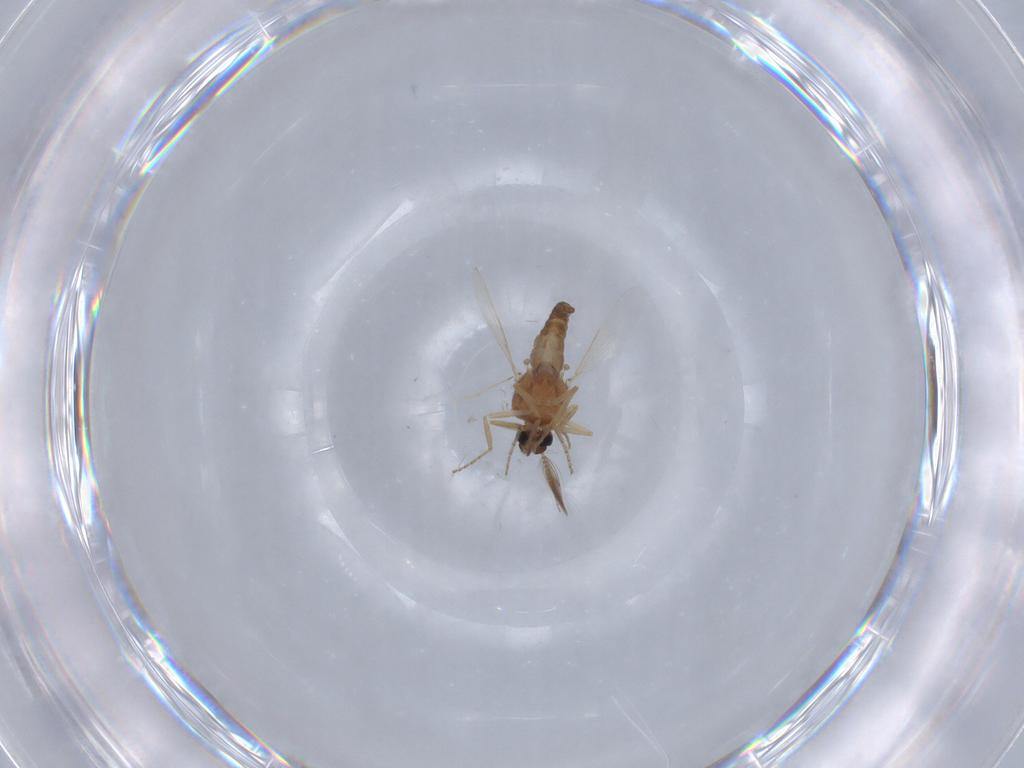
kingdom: Animalia
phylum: Arthropoda
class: Insecta
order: Diptera
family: Ceratopogonidae
